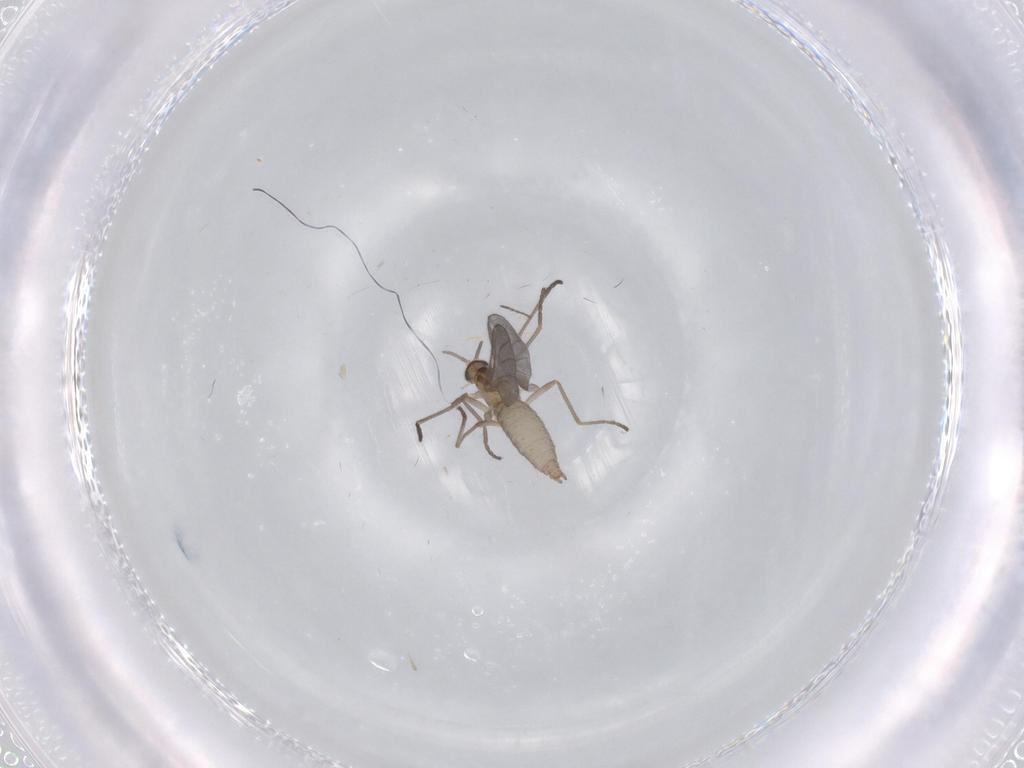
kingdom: Animalia
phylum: Arthropoda
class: Insecta
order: Diptera
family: Cecidomyiidae
